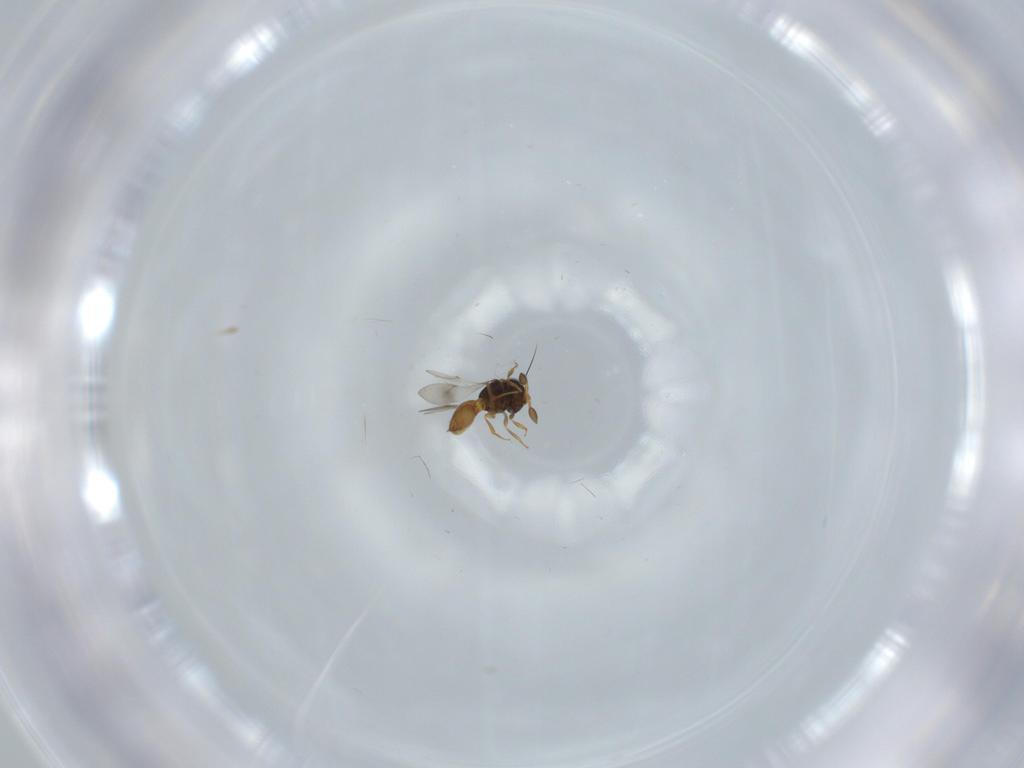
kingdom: Animalia
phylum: Arthropoda
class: Insecta
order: Hymenoptera
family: Scelionidae
